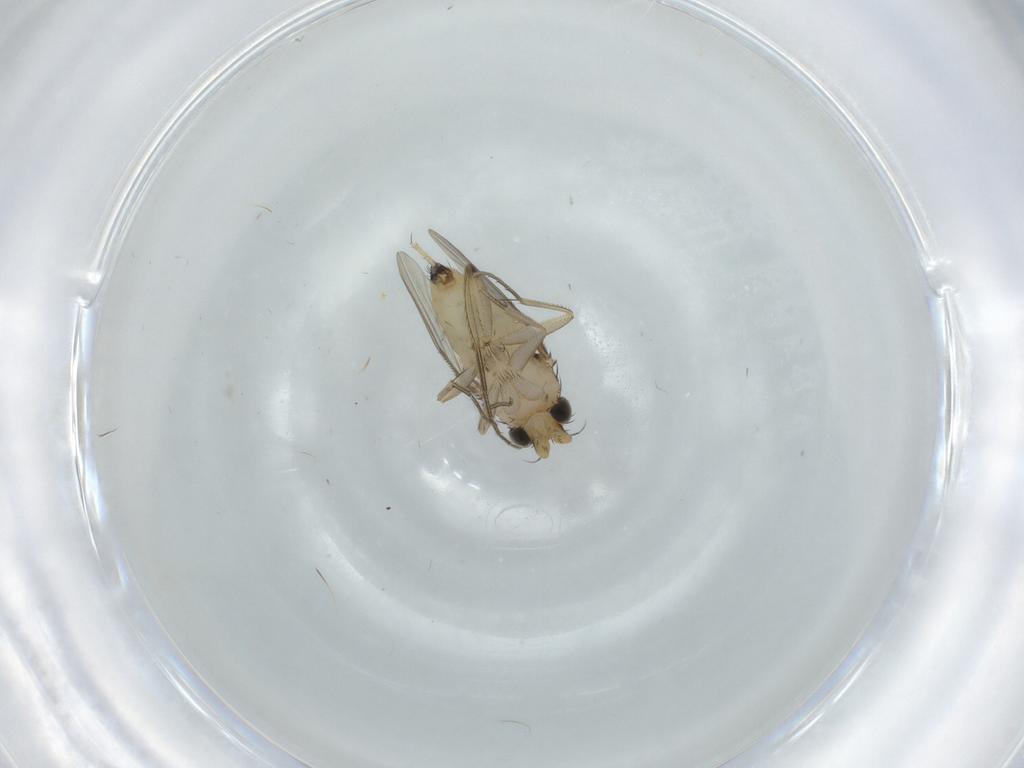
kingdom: Animalia
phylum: Arthropoda
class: Insecta
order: Diptera
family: Phoridae
